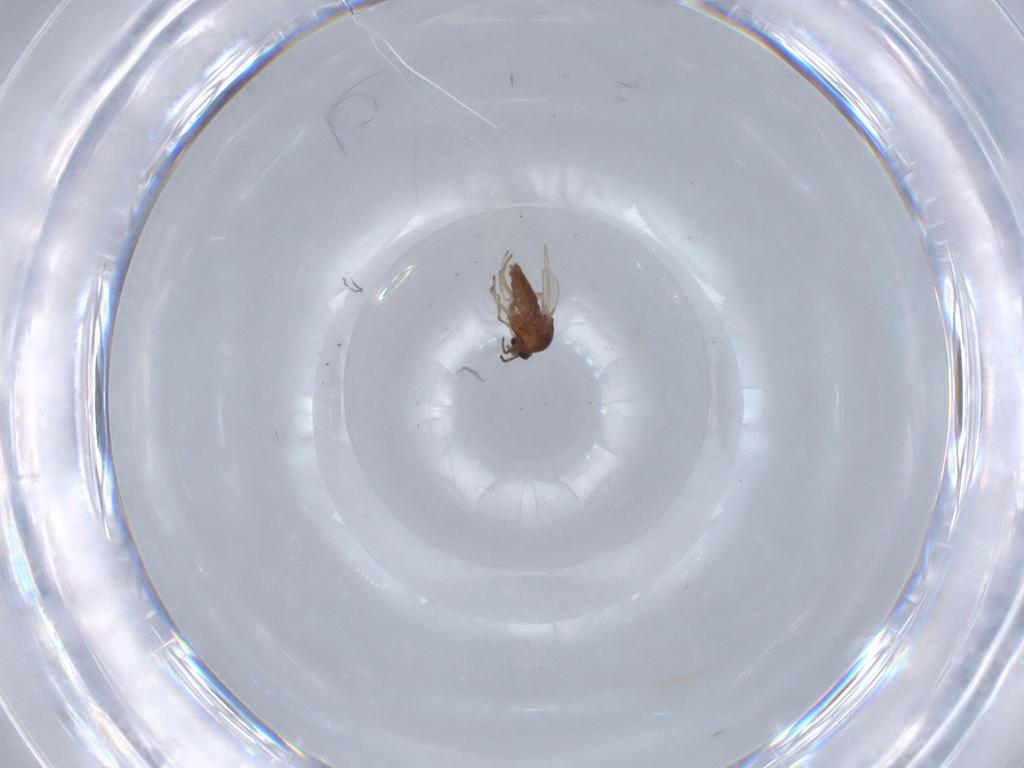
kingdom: Animalia
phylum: Arthropoda
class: Insecta
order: Diptera
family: Ceratopogonidae
